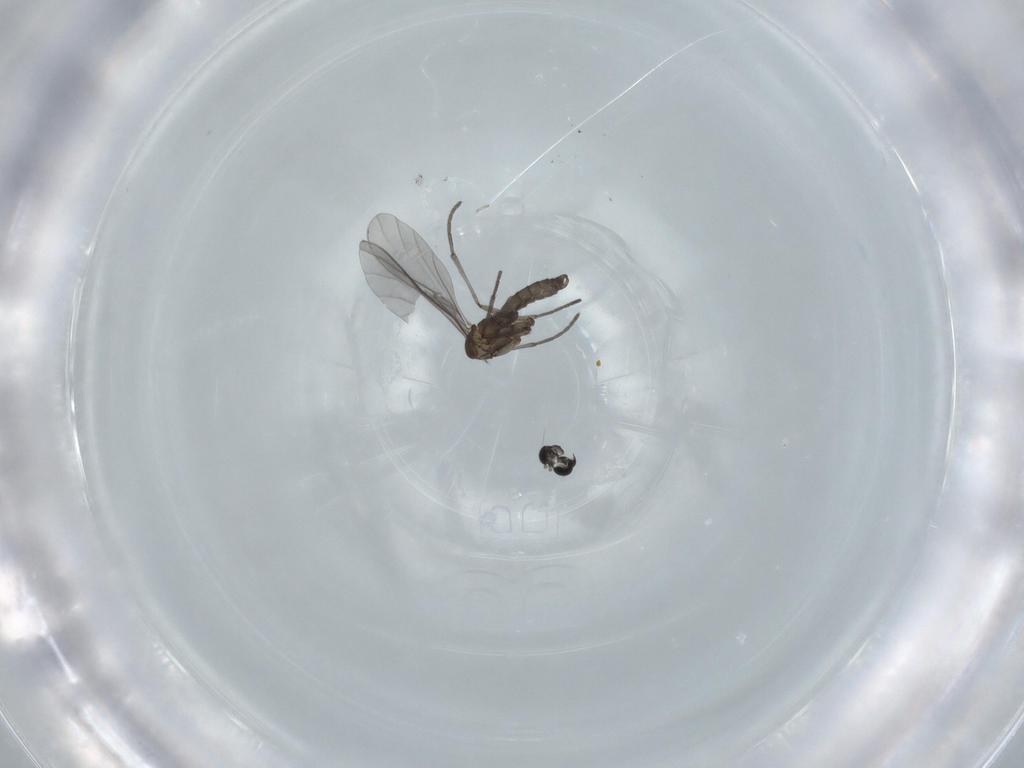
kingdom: Animalia
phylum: Arthropoda
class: Insecta
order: Diptera
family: Sciaridae
